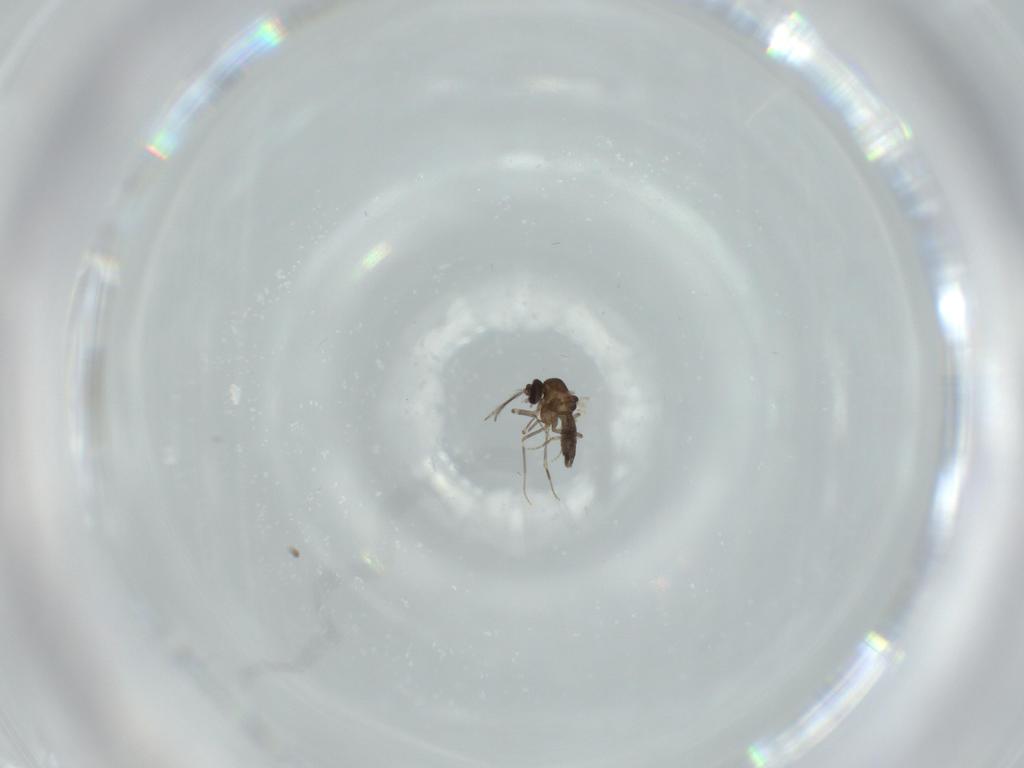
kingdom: Animalia
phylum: Arthropoda
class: Insecta
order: Diptera
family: Ceratopogonidae
